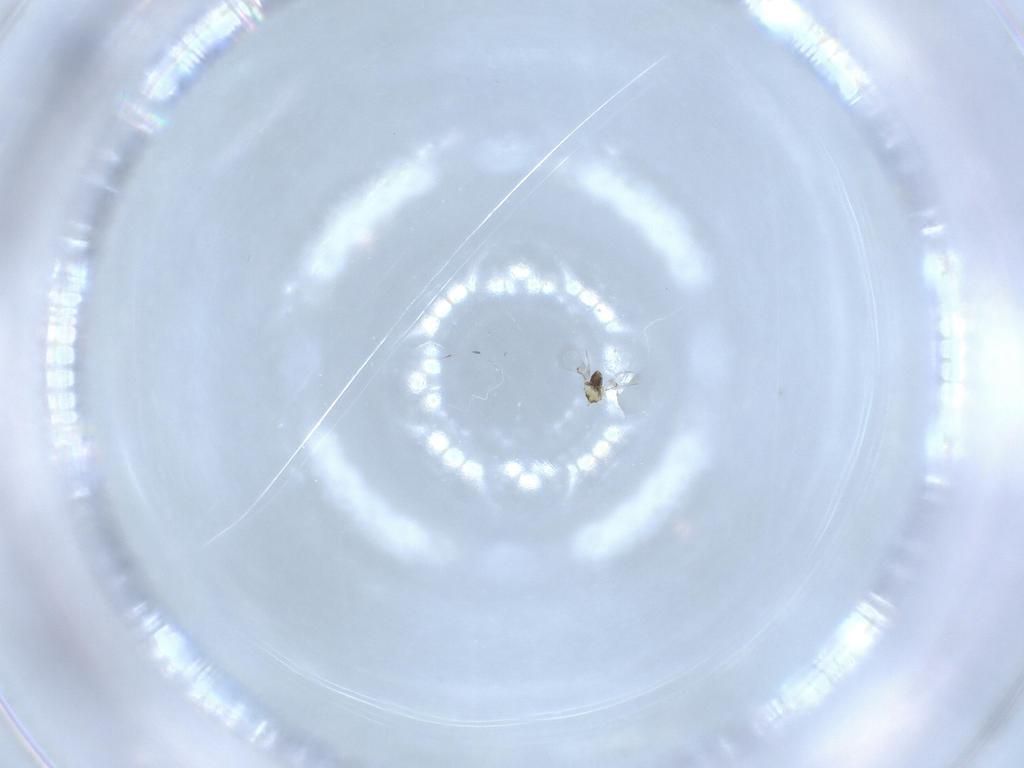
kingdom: Animalia
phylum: Arthropoda
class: Insecta
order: Hymenoptera
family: Trichogrammatidae
